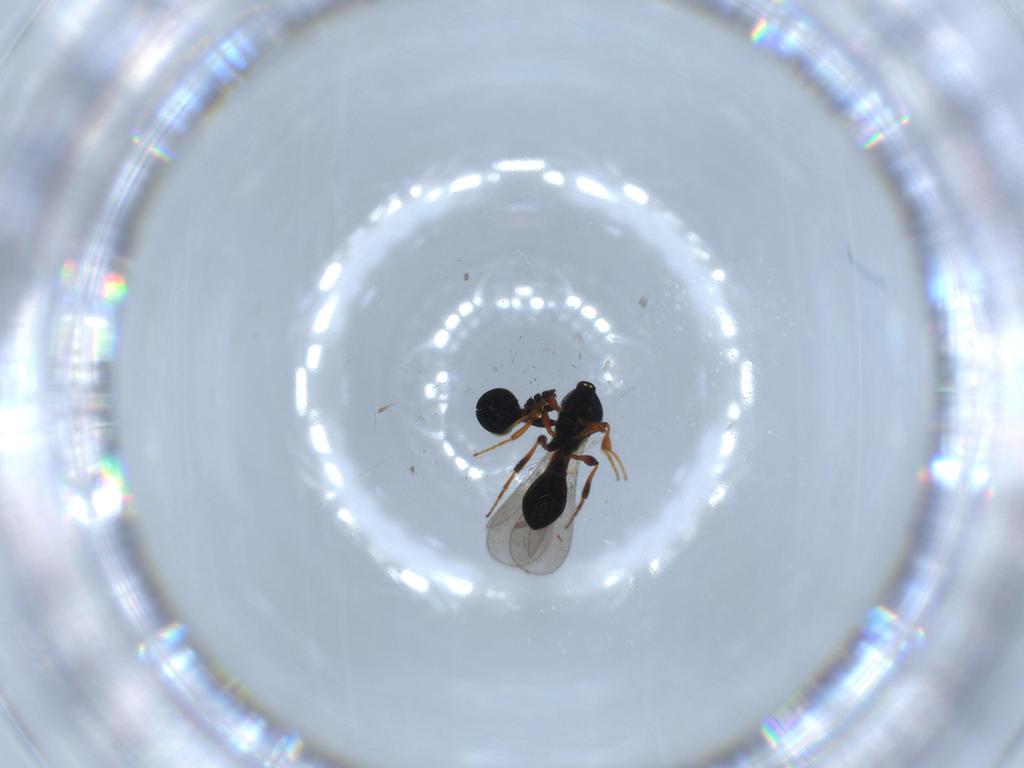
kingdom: Animalia
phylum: Arthropoda
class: Insecta
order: Hymenoptera
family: Platygastridae
